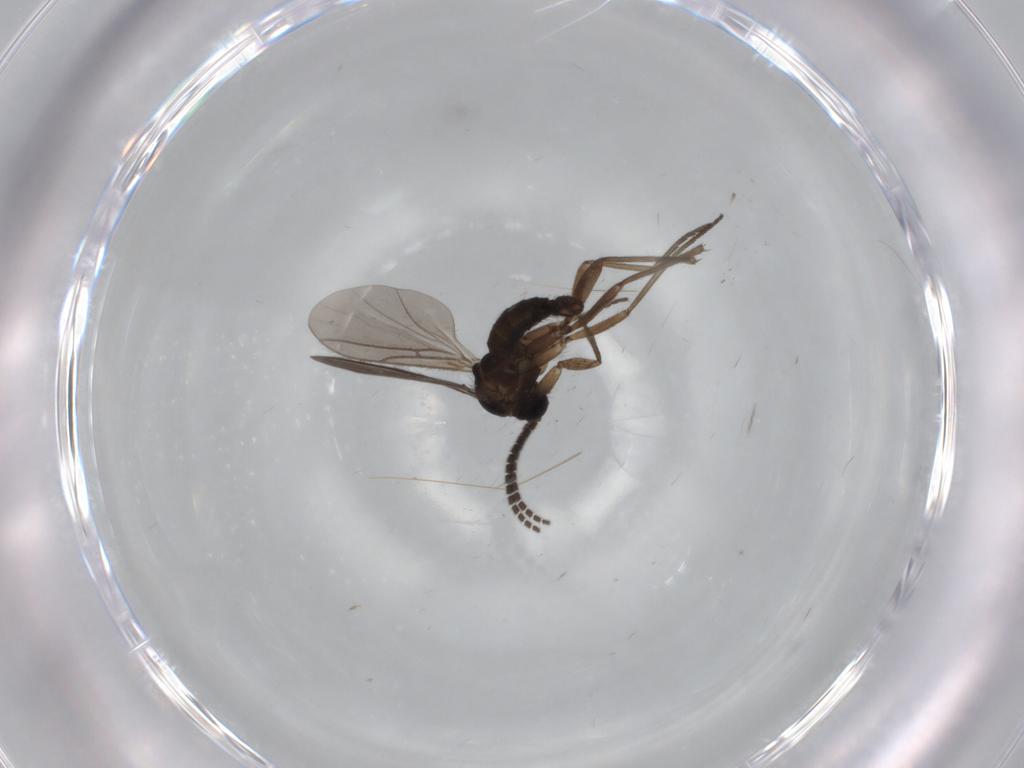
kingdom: Animalia
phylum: Arthropoda
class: Insecta
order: Diptera
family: Sciaridae
